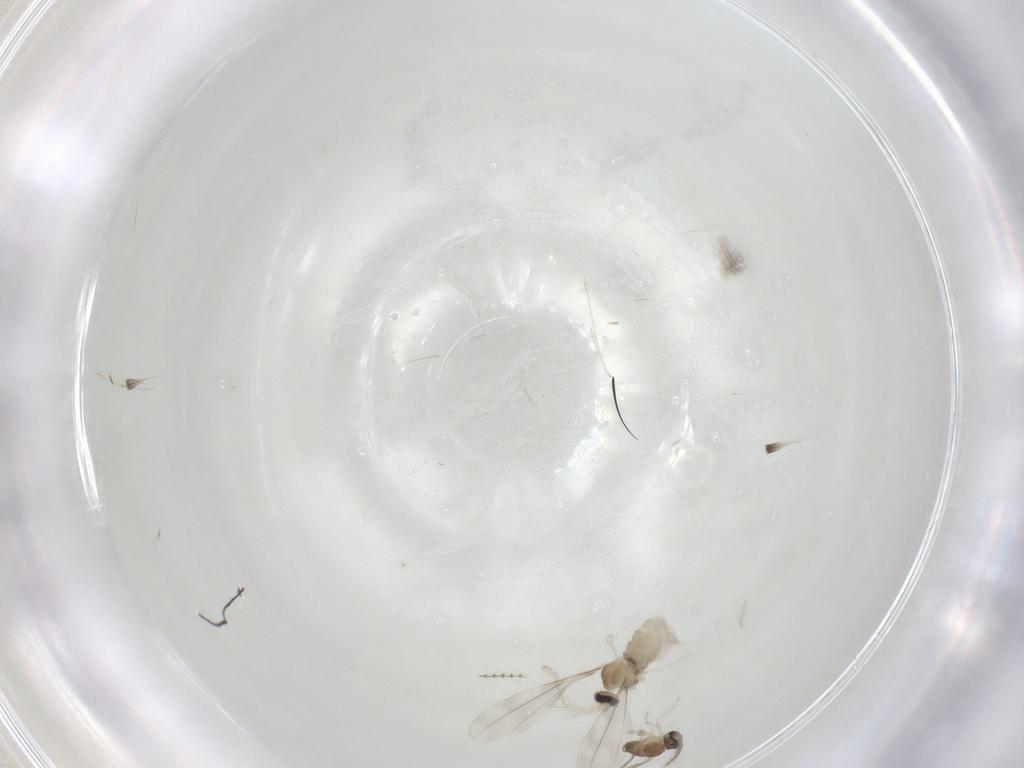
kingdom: Animalia
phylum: Arthropoda
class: Insecta
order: Diptera
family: Cecidomyiidae
